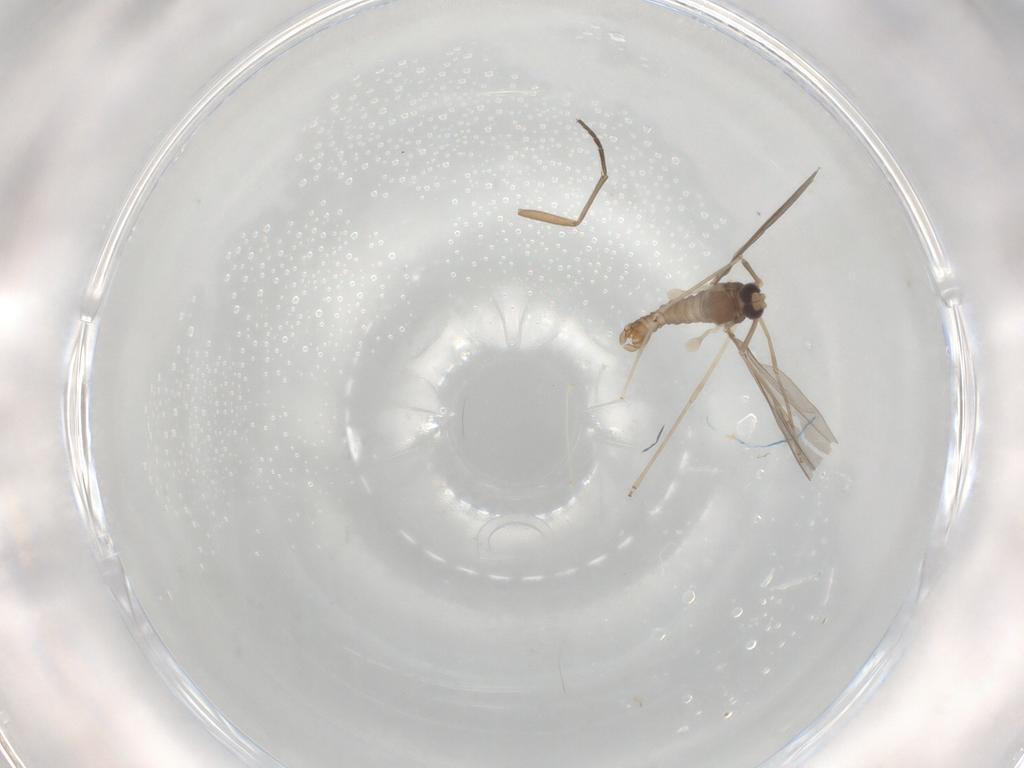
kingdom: Animalia
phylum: Arthropoda
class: Insecta
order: Diptera
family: Cecidomyiidae
